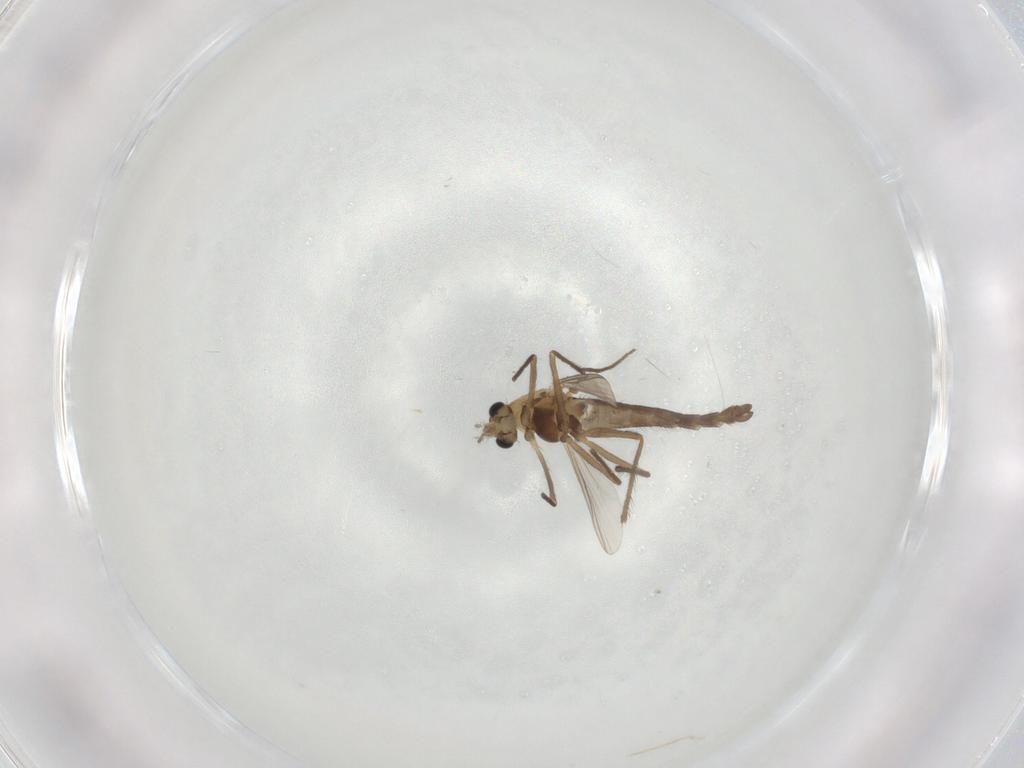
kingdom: Animalia
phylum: Arthropoda
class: Insecta
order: Diptera
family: Chironomidae
